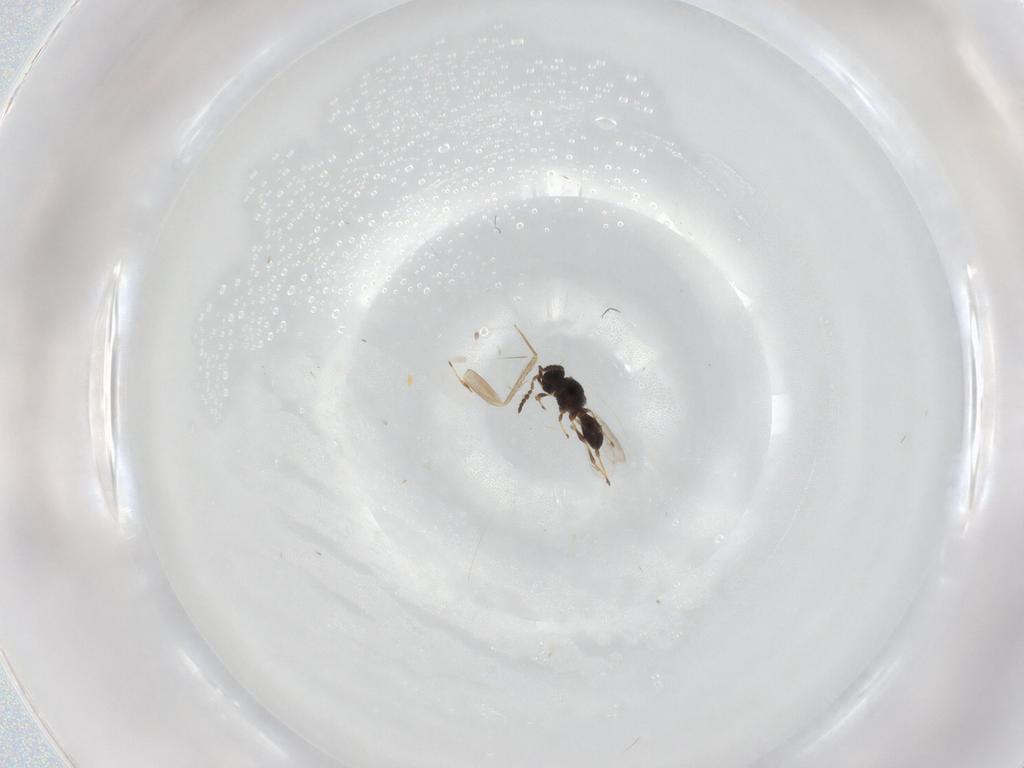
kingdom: Animalia
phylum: Arthropoda
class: Insecta
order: Hymenoptera
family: Platygastridae
